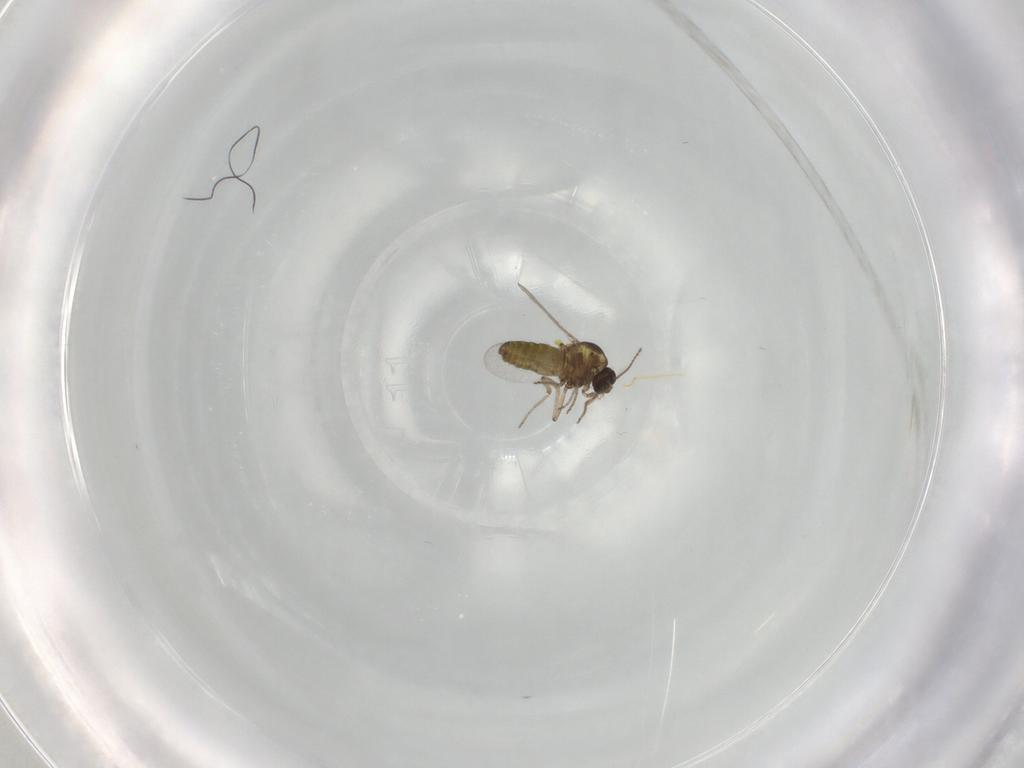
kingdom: Animalia
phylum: Arthropoda
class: Insecta
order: Diptera
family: Ceratopogonidae
